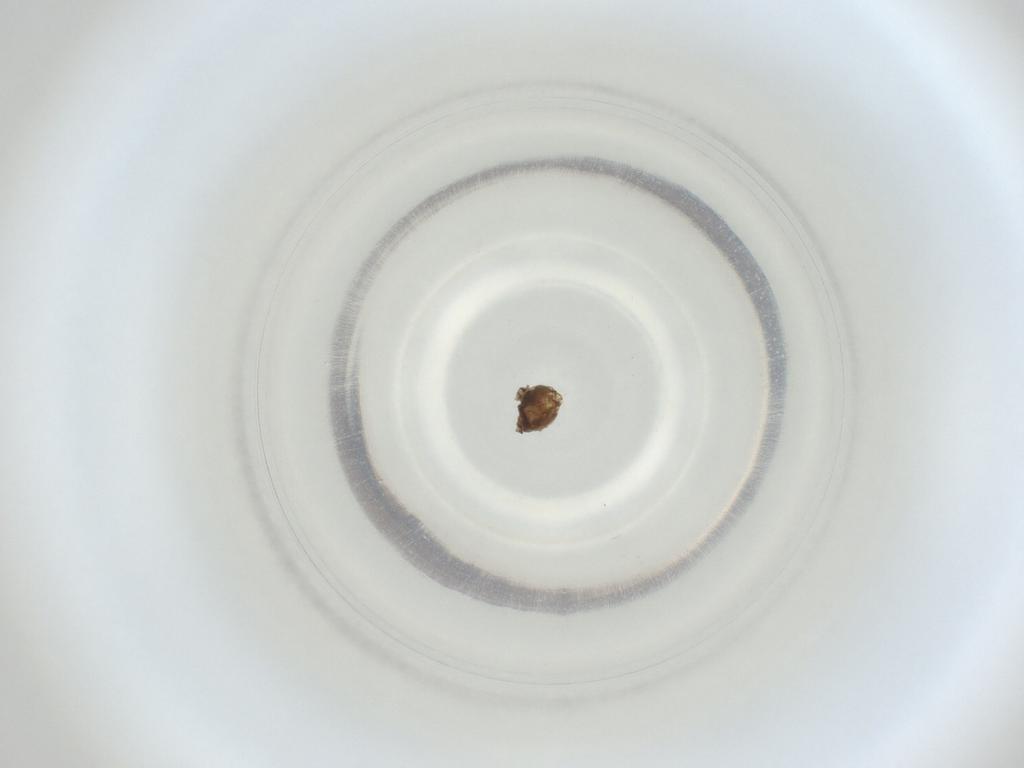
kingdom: Animalia
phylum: Arthropoda
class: Insecta
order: Diptera
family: Cecidomyiidae
